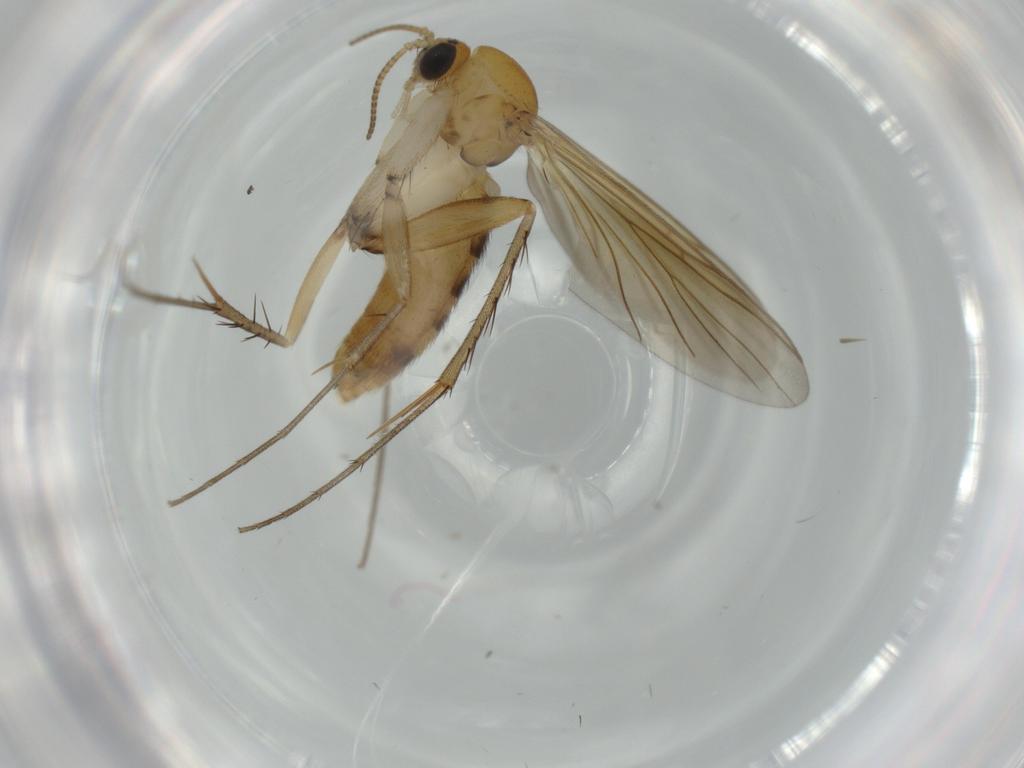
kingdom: Animalia
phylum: Arthropoda
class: Insecta
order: Diptera
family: Mycetophilidae
